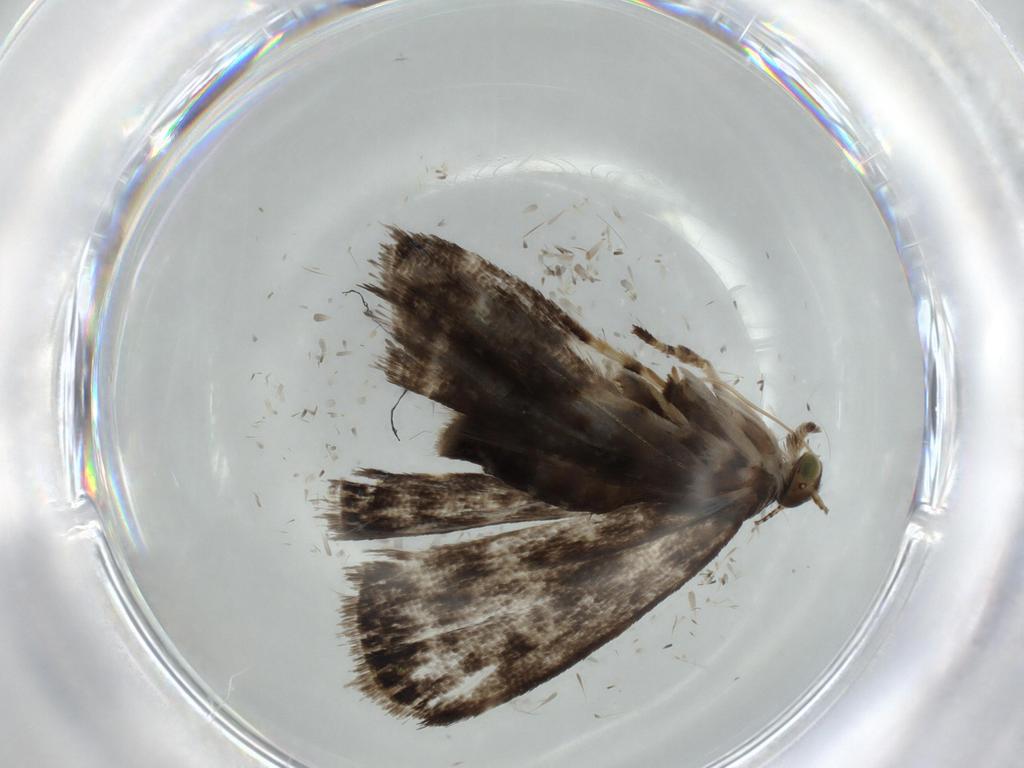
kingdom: Animalia
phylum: Arthropoda
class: Insecta
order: Lepidoptera
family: Choreutidae
